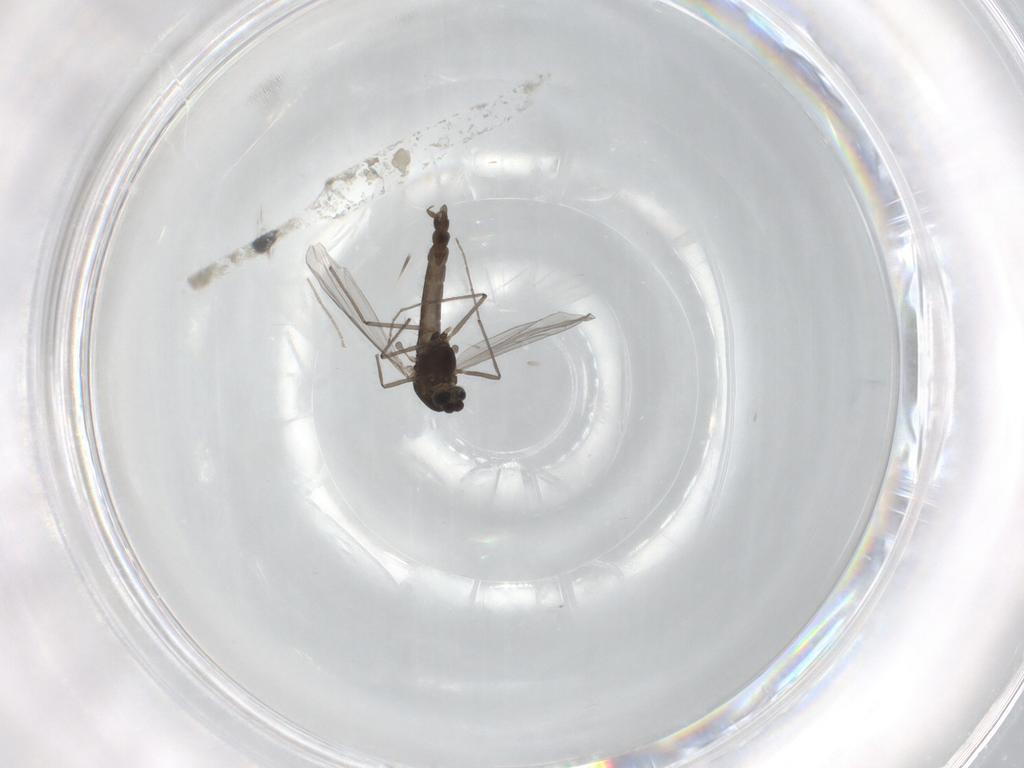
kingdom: Animalia
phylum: Arthropoda
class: Insecta
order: Diptera
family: Chironomidae
